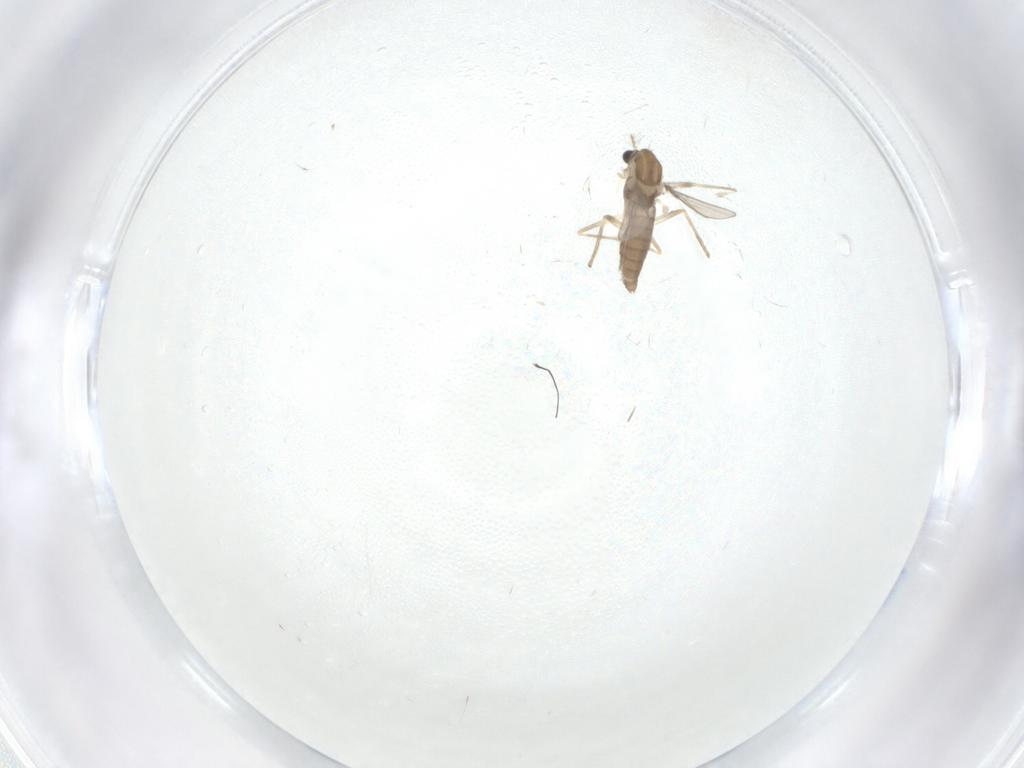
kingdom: Animalia
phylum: Arthropoda
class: Insecta
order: Diptera
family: Chironomidae
